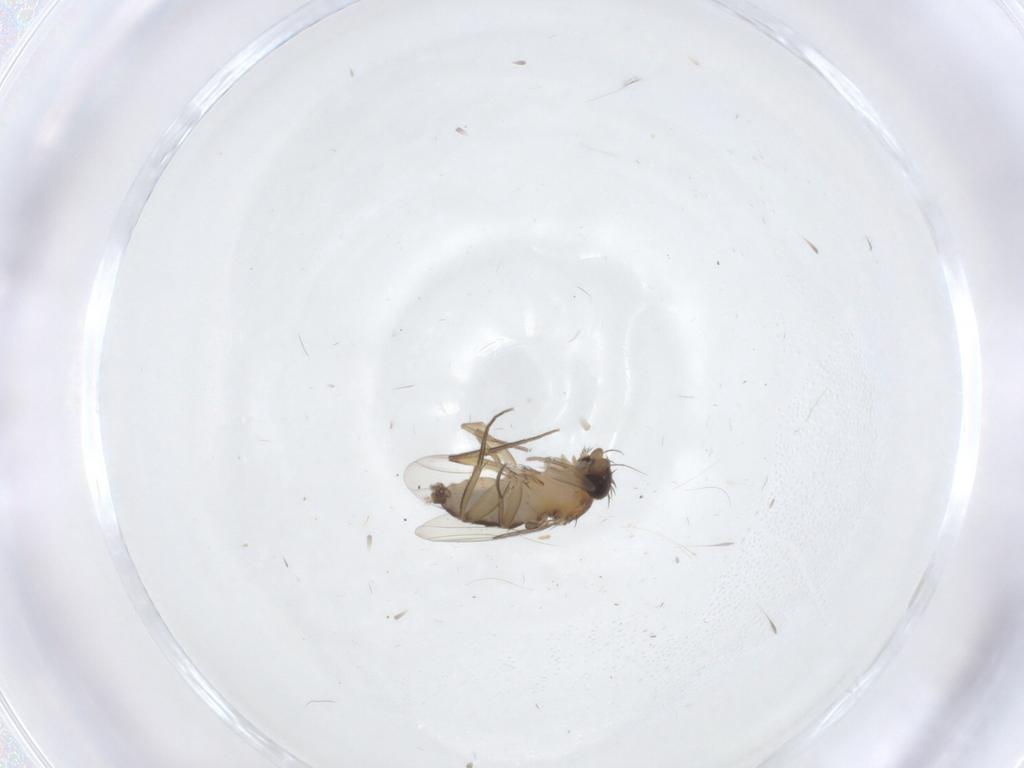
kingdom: Animalia
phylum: Arthropoda
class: Insecta
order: Diptera
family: Phoridae
